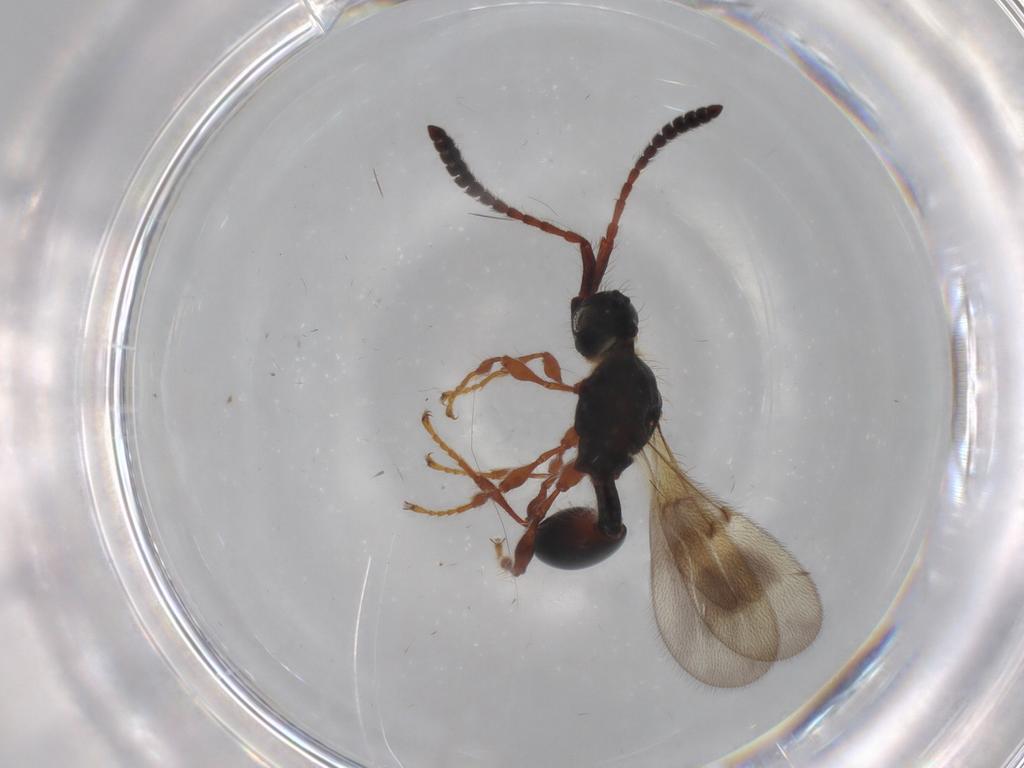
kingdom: Animalia
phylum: Arthropoda
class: Insecta
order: Hymenoptera
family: Diapriidae
